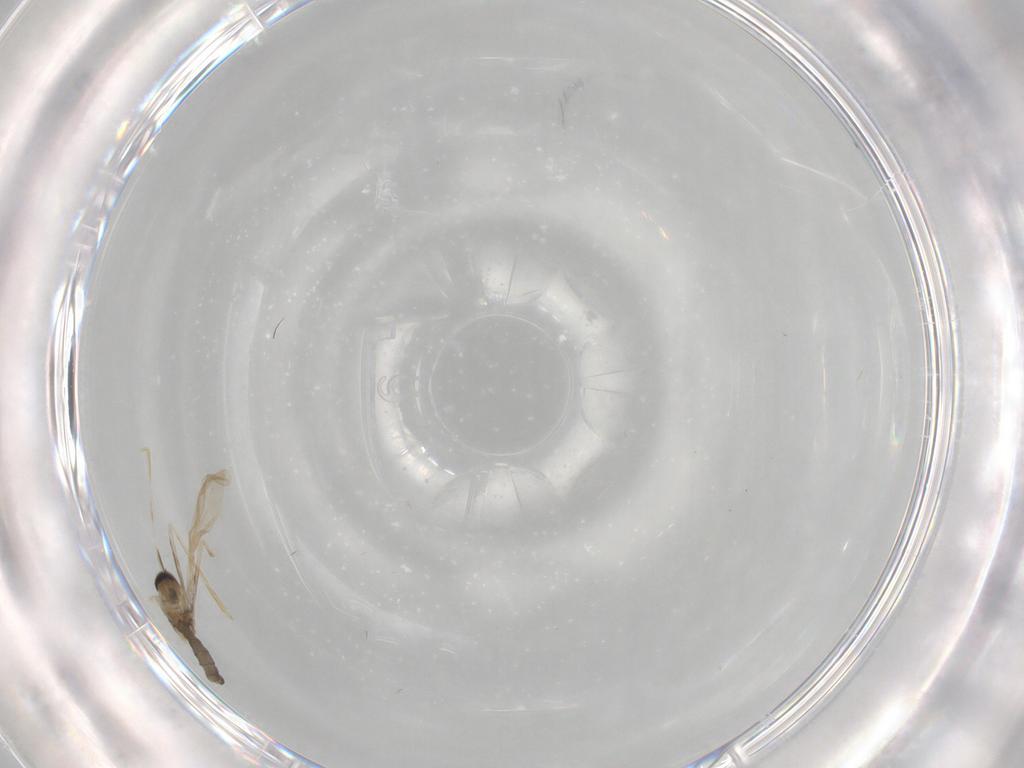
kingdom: Animalia
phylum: Arthropoda
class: Insecta
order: Diptera
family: Cecidomyiidae
